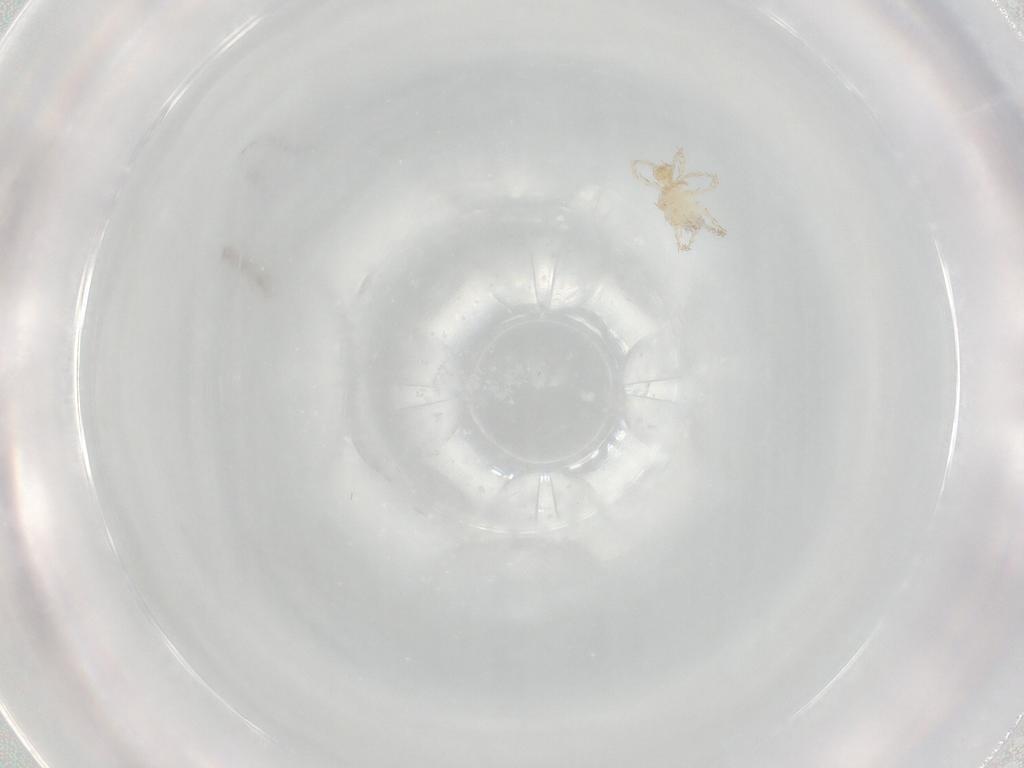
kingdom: Animalia
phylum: Arthropoda
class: Arachnida
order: Trombidiformes
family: Erythraeidae
